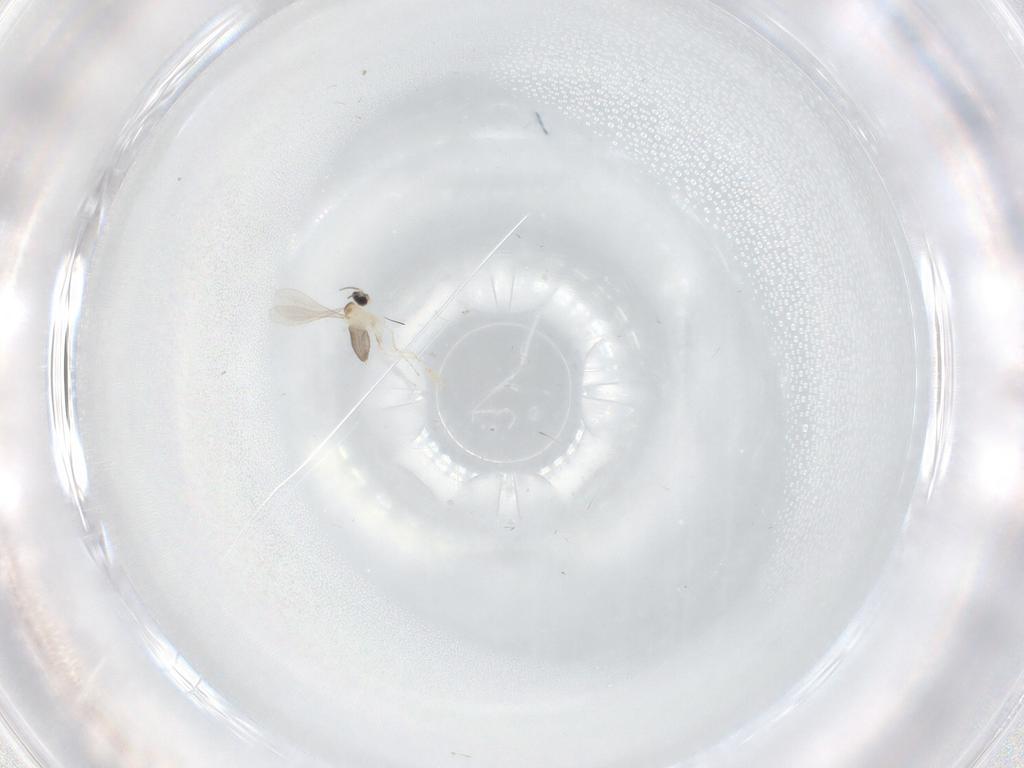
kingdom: Animalia
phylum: Arthropoda
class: Insecta
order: Diptera
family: Cecidomyiidae
